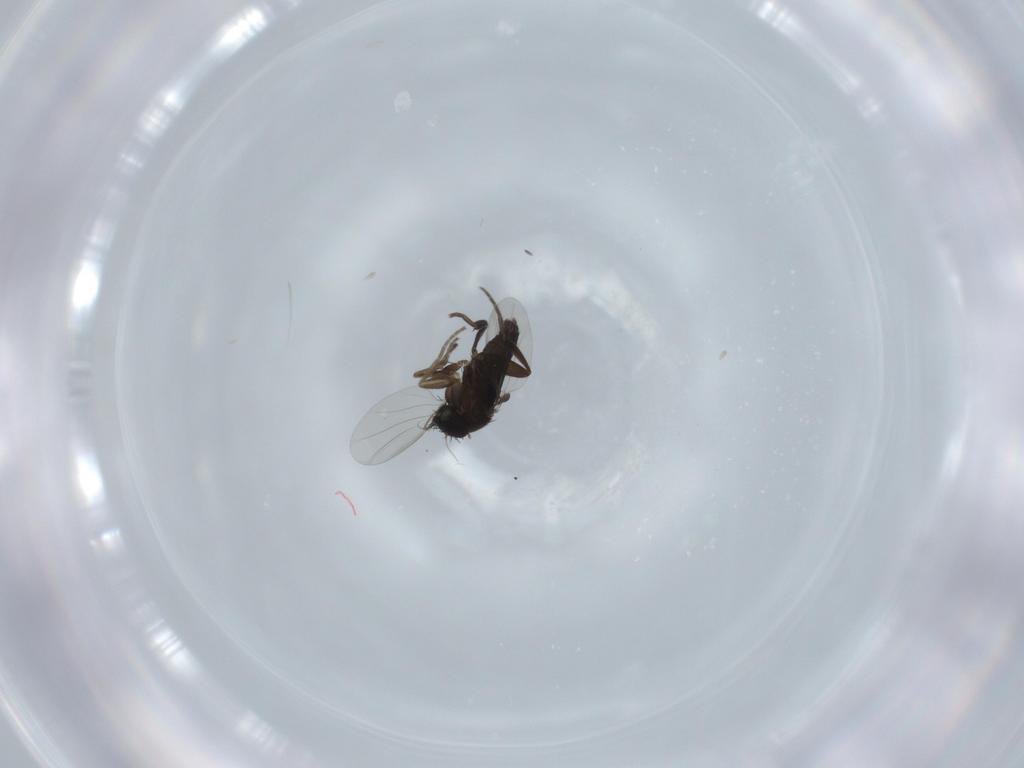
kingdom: Animalia
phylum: Arthropoda
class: Insecta
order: Diptera
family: Phoridae
